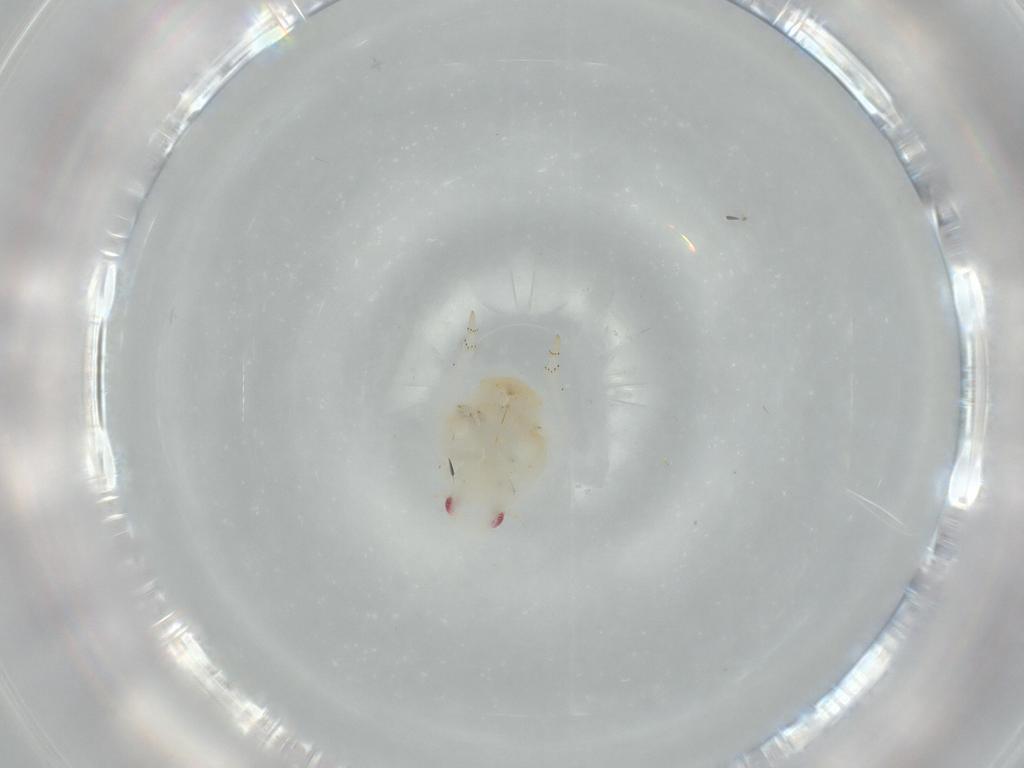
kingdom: Animalia
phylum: Arthropoda
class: Insecta
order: Hemiptera
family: Flatidae
